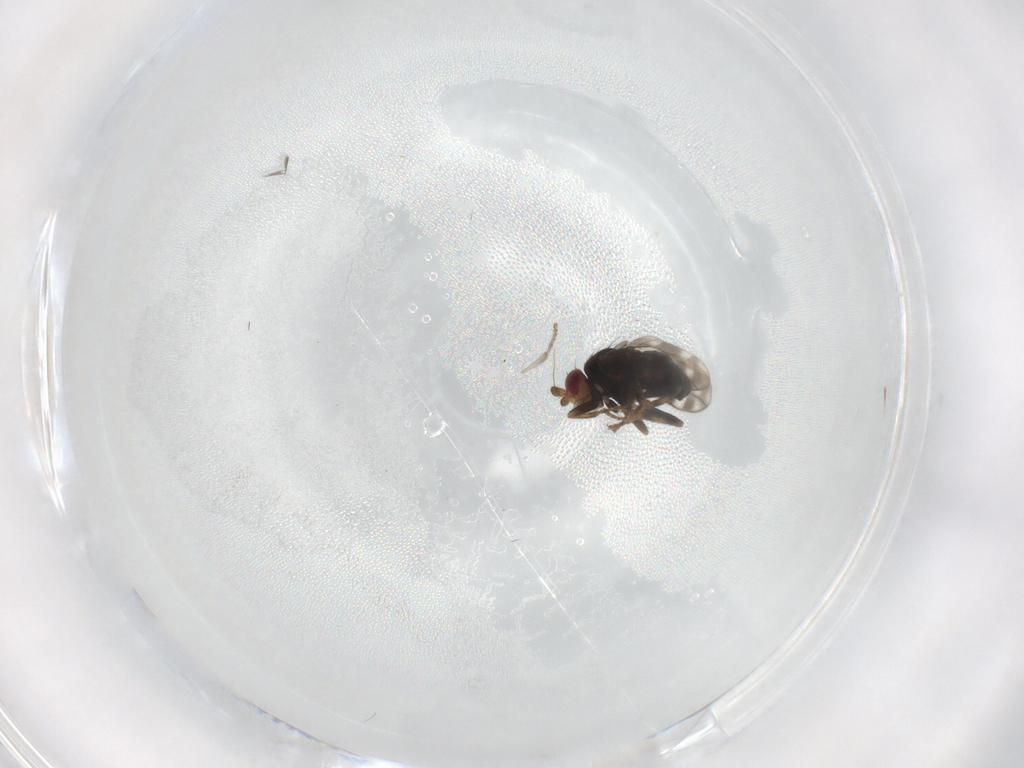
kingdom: Animalia
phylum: Arthropoda
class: Insecta
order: Diptera
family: Sphaeroceridae
